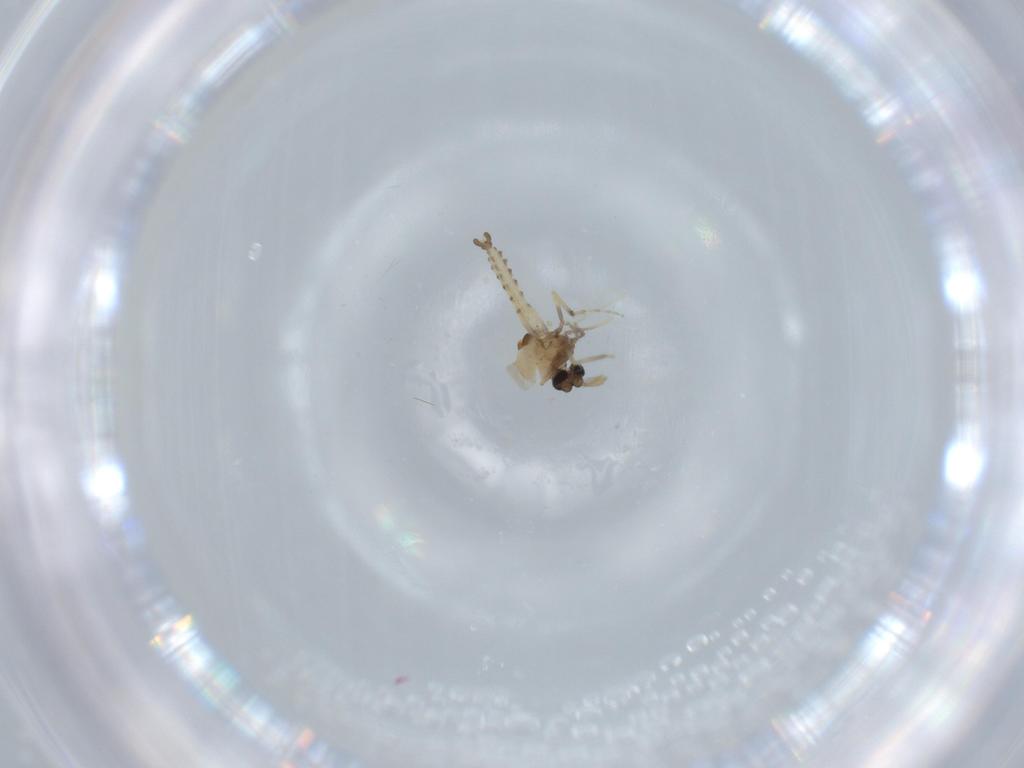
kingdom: Animalia
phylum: Arthropoda
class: Insecta
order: Diptera
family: Ceratopogonidae
